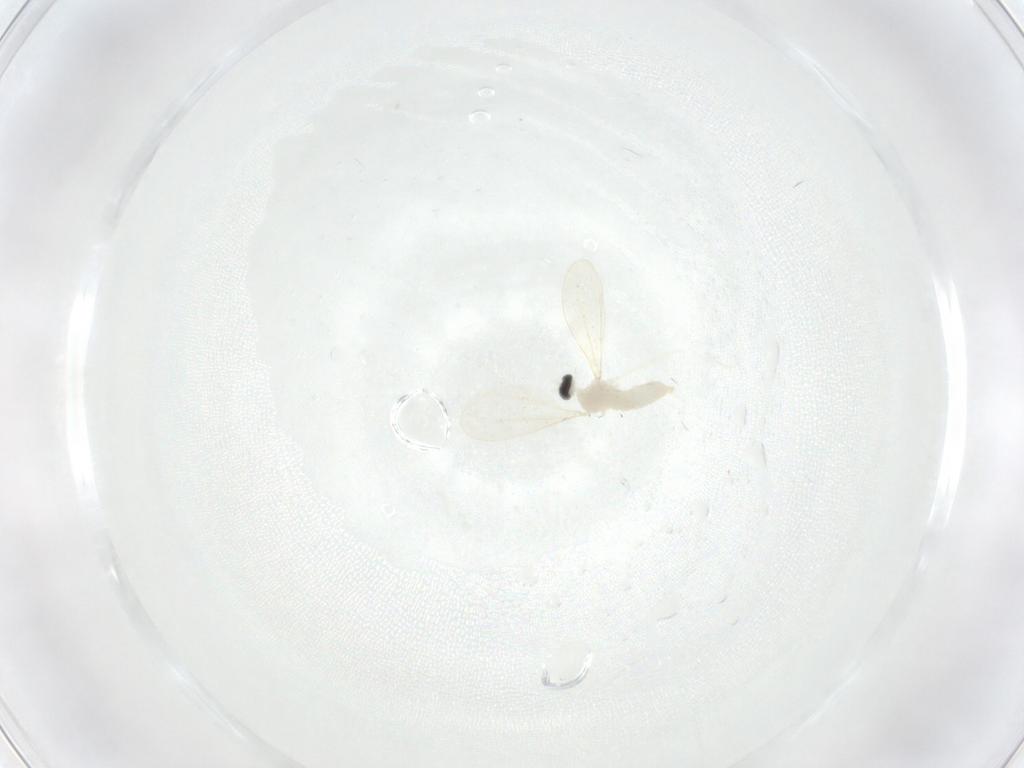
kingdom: Animalia
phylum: Arthropoda
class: Insecta
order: Diptera
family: Cecidomyiidae
